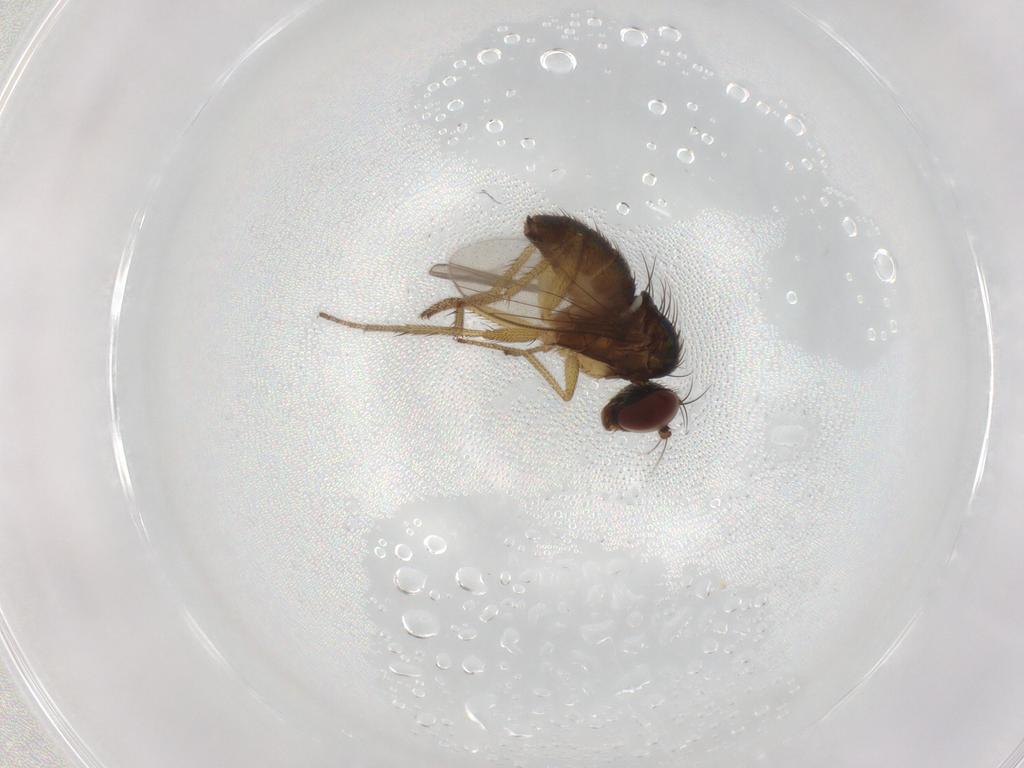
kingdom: Animalia
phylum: Arthropoda
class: Insecta
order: Diptera
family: Chironomidae
